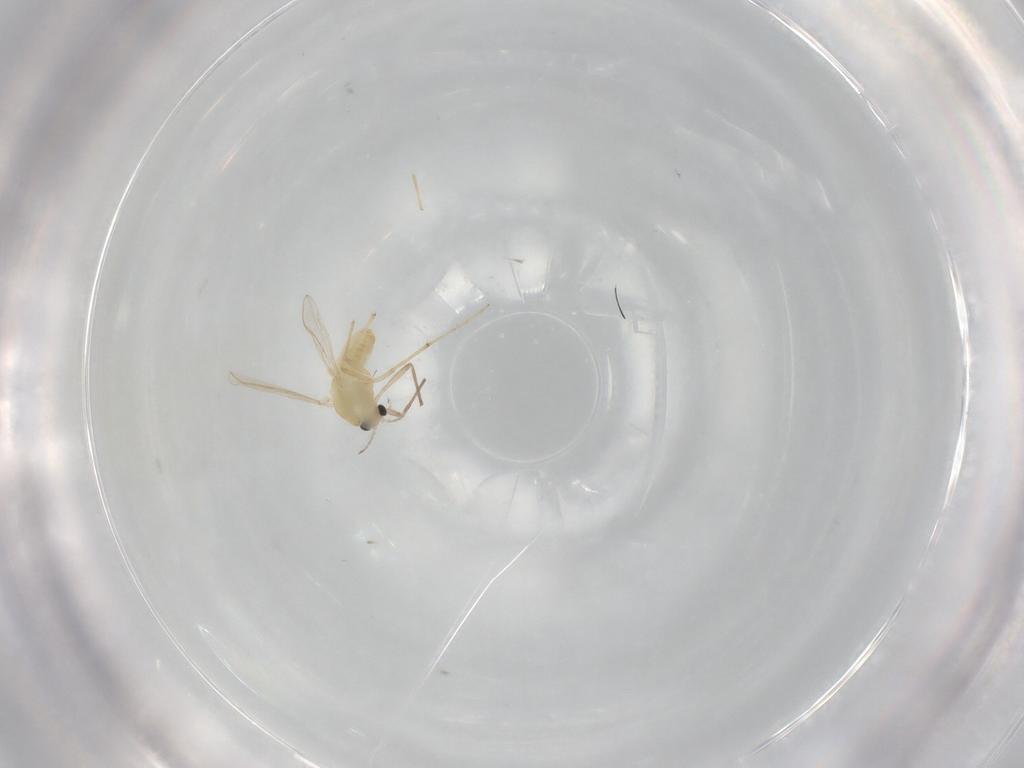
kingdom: Animalia
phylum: Arthropoda
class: Insecta
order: Diptera
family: Chironomidae
